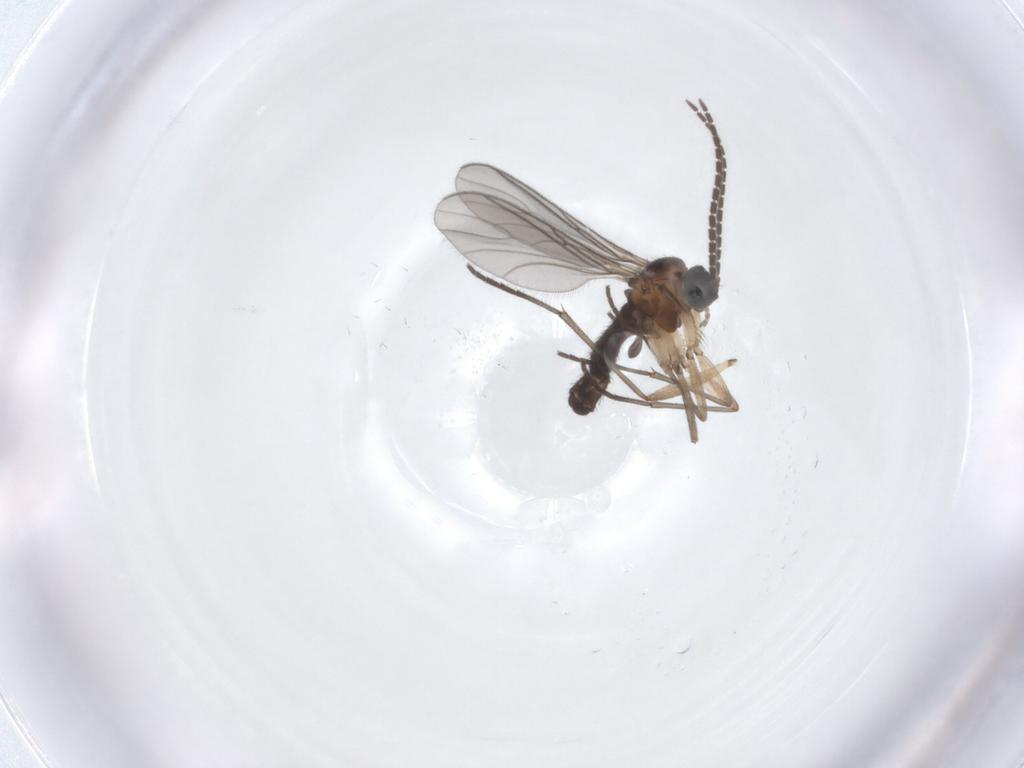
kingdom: Animalia
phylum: Arthropoda
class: Insecta
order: Diptera
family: Sciaridae
